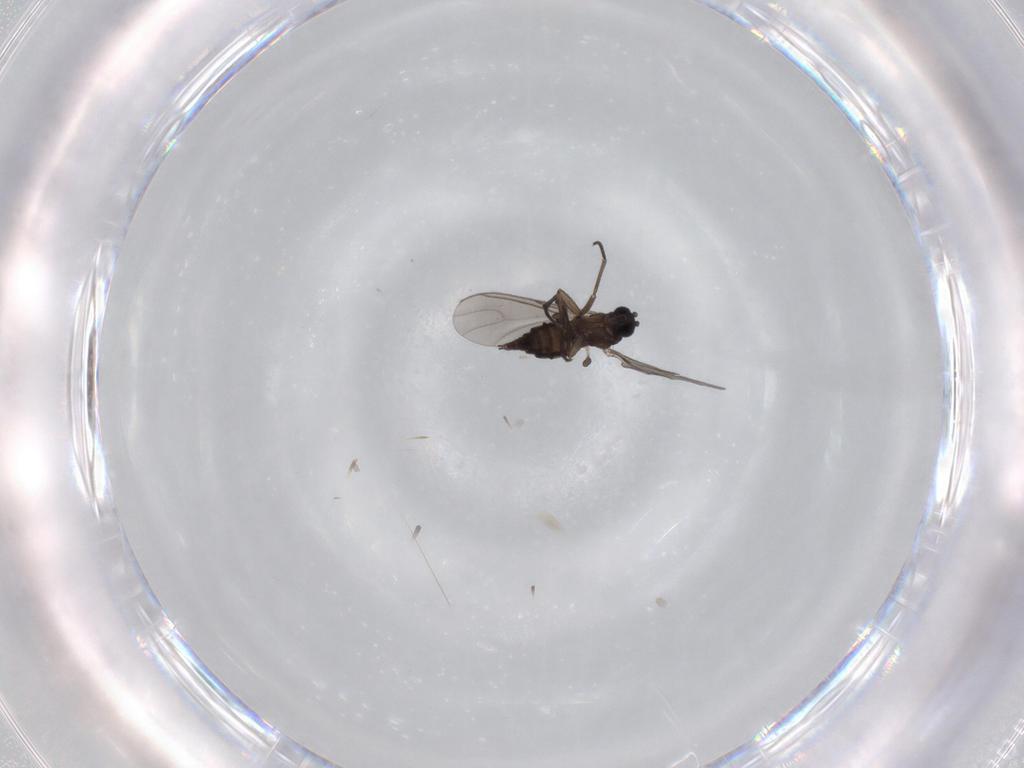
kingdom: Animalia
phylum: Arthropoda
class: Insecta
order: Diptera
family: Sciaridae
